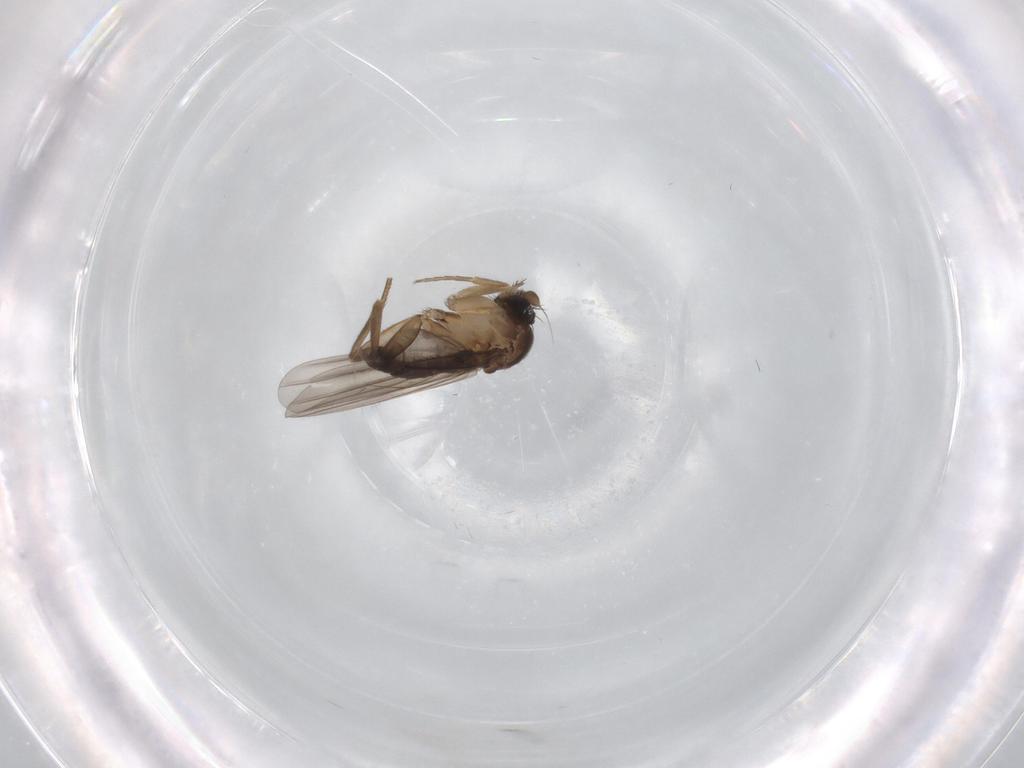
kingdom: Animalia
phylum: Arthropoda
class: Insecta
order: Diptera
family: Phoridae
